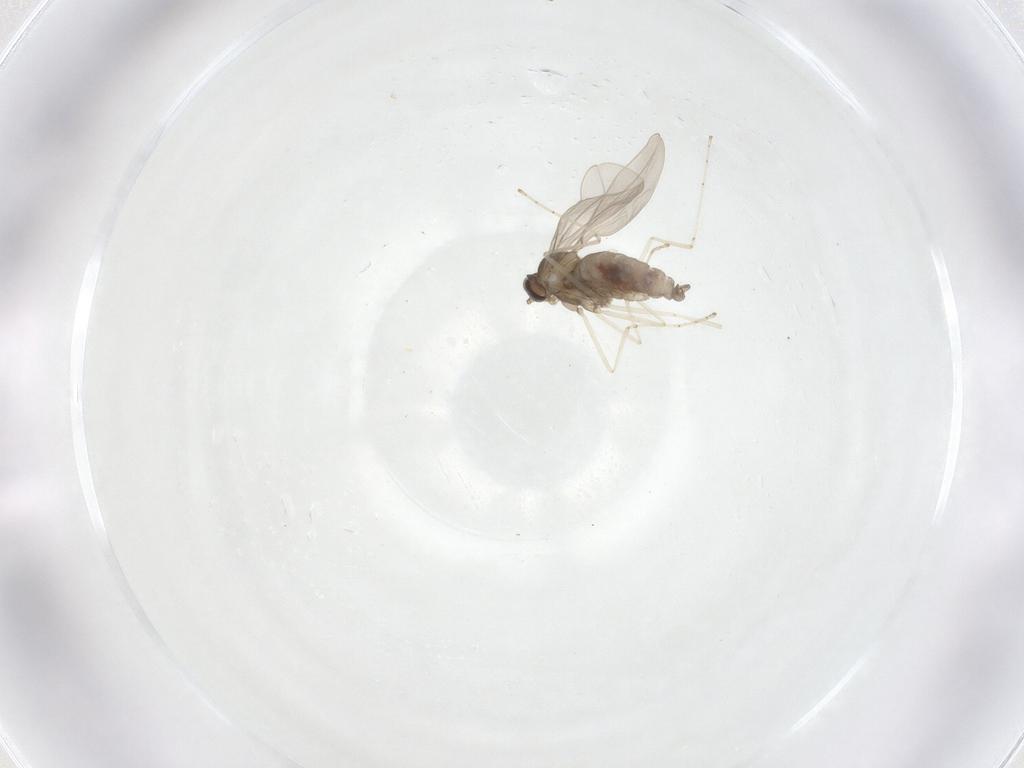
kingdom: Animalia
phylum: Arthropoda
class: Insecta
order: Diptera
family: Cecidomyiidae
